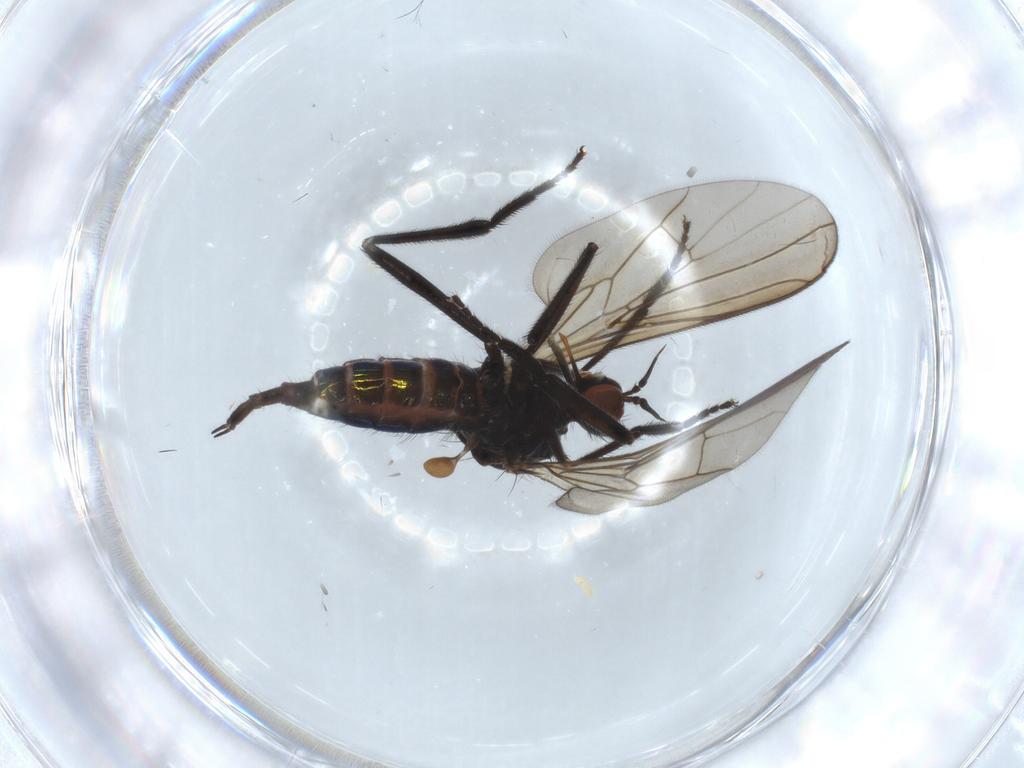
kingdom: Animalia
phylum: Arthropoda
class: Insecta
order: Diptera
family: Empididae
